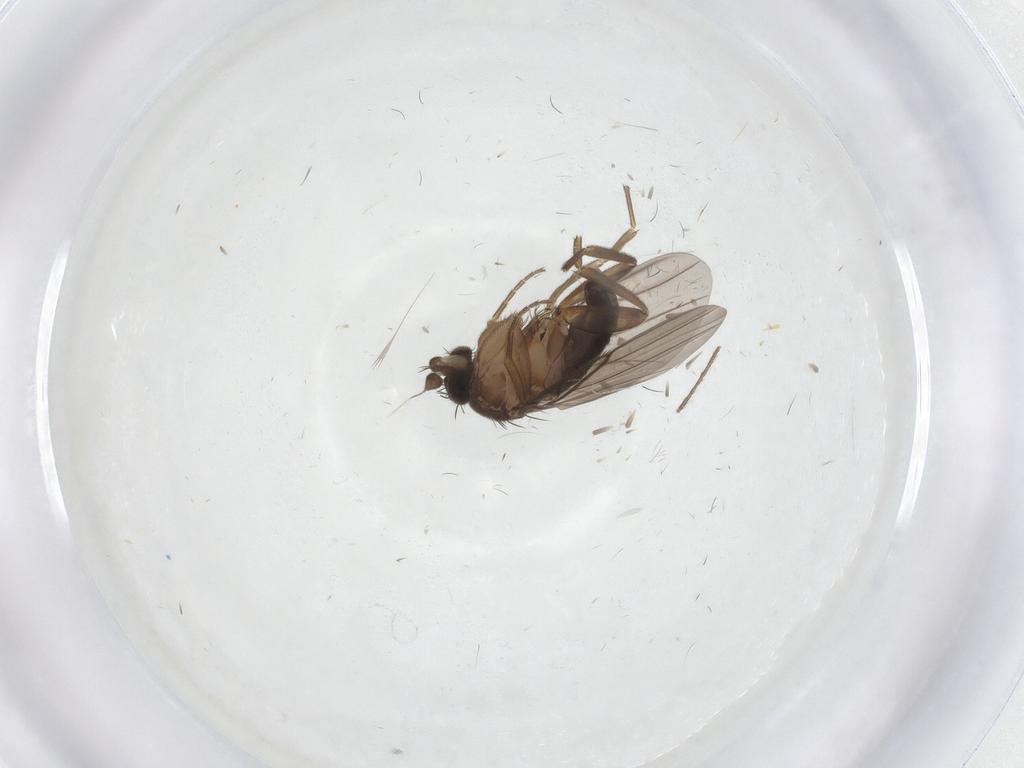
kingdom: Animalia
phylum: Arthropoda
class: Insecta
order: Diptera
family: Phoridae
